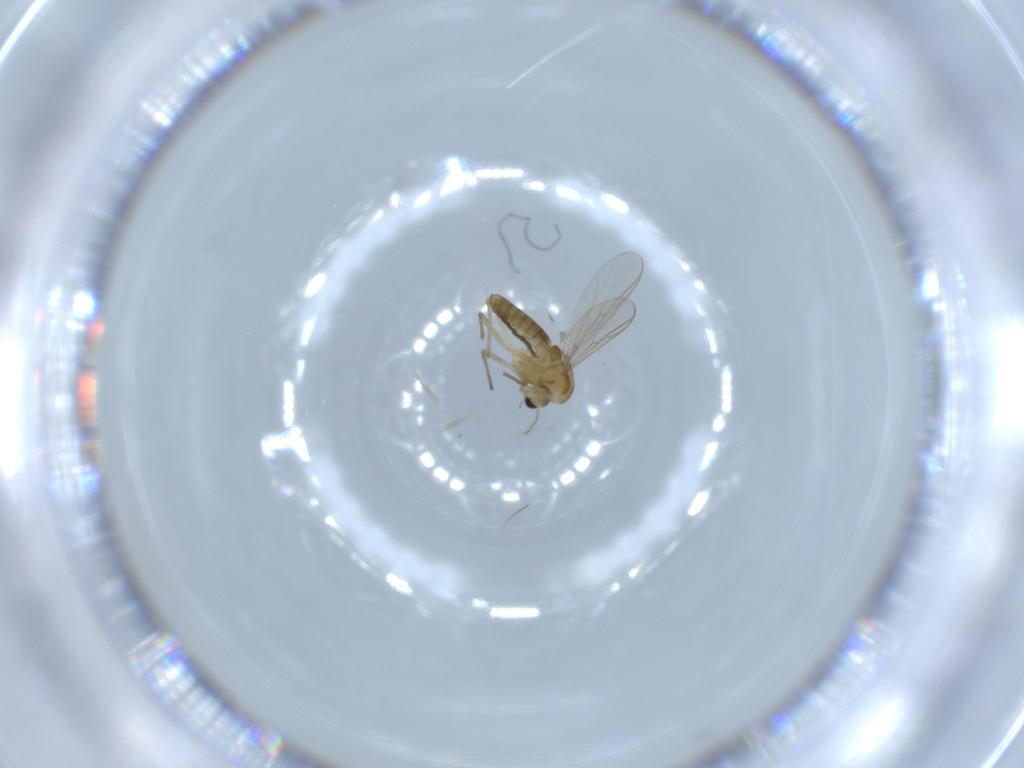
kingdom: Animalia
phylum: Arthropoda
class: Insecta
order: Diptera
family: Chironomidae
